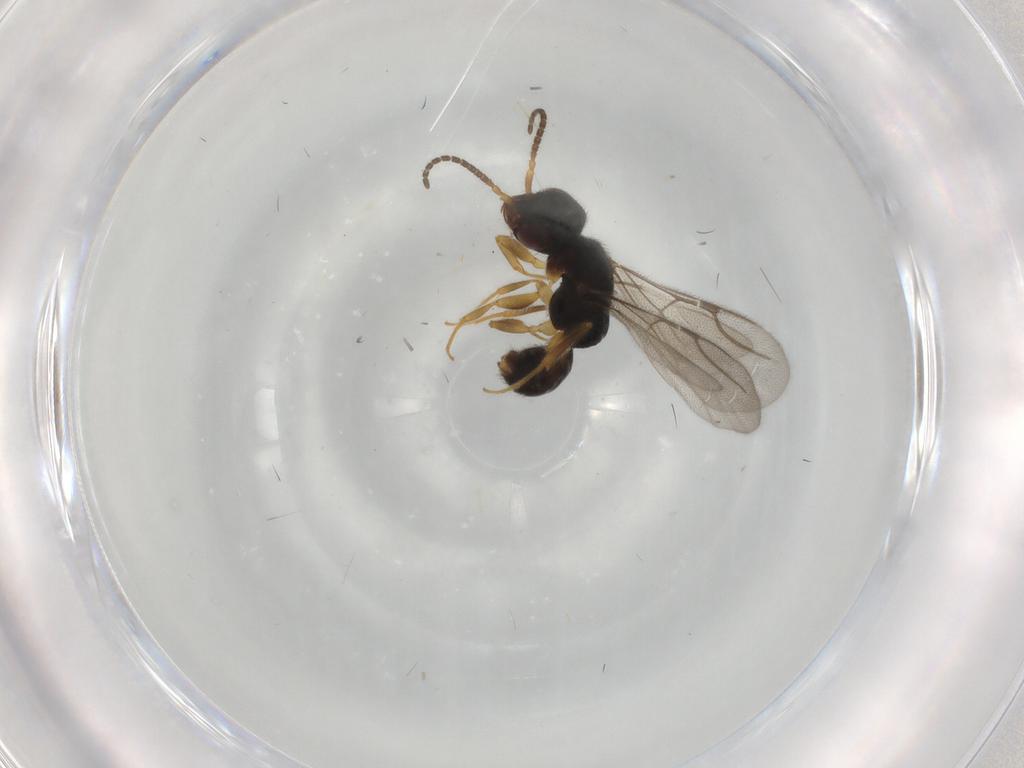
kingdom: Animalia
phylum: Arthropoda
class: Insecta
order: Hymenoptera
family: Bethylidae
